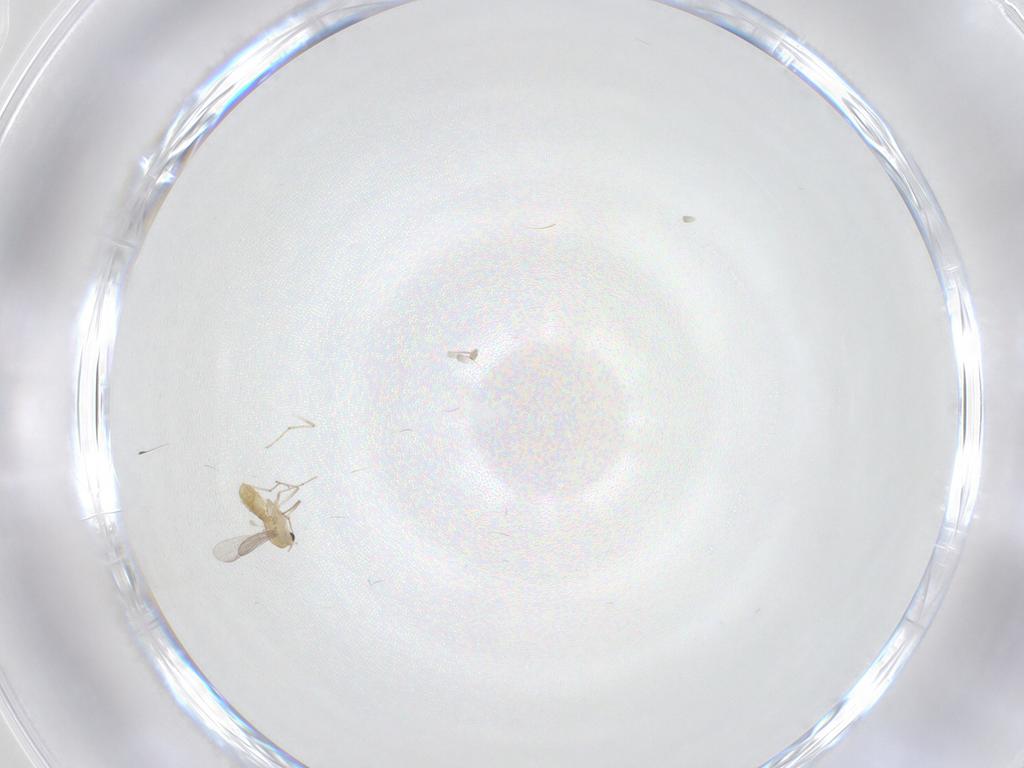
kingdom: Animalia
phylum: Arthropoda
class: Insecta
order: Diptera
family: Chironomidae
